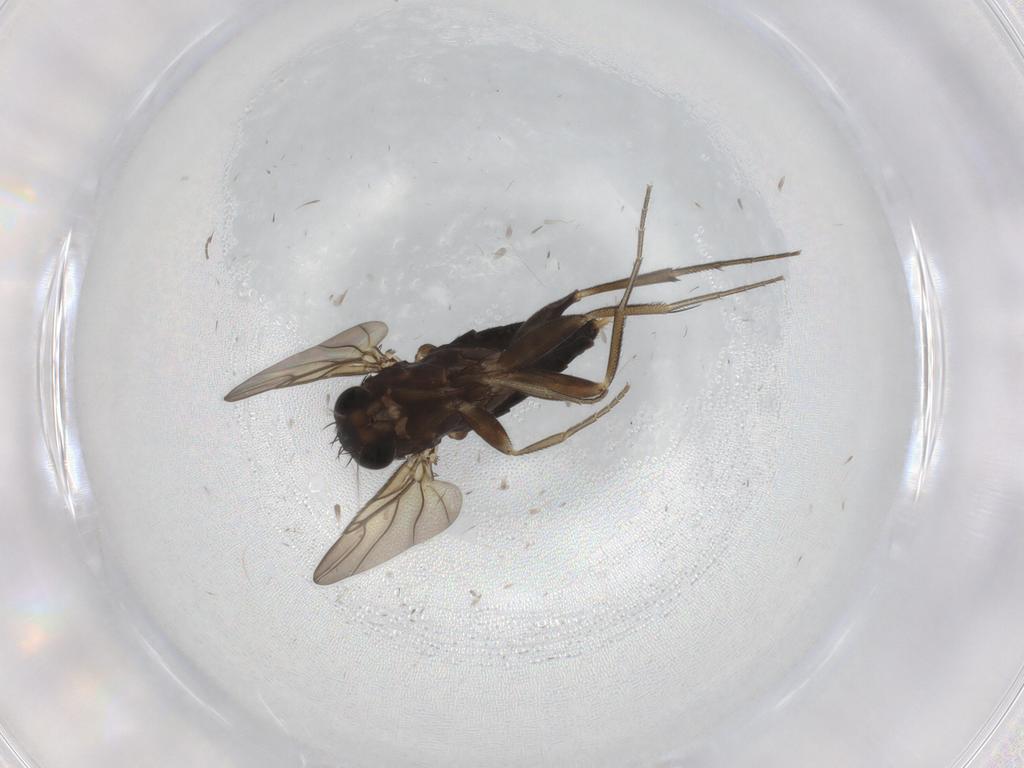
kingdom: Animalia
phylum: Arthropoda
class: Insecta
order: Diptera
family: Phoridae
